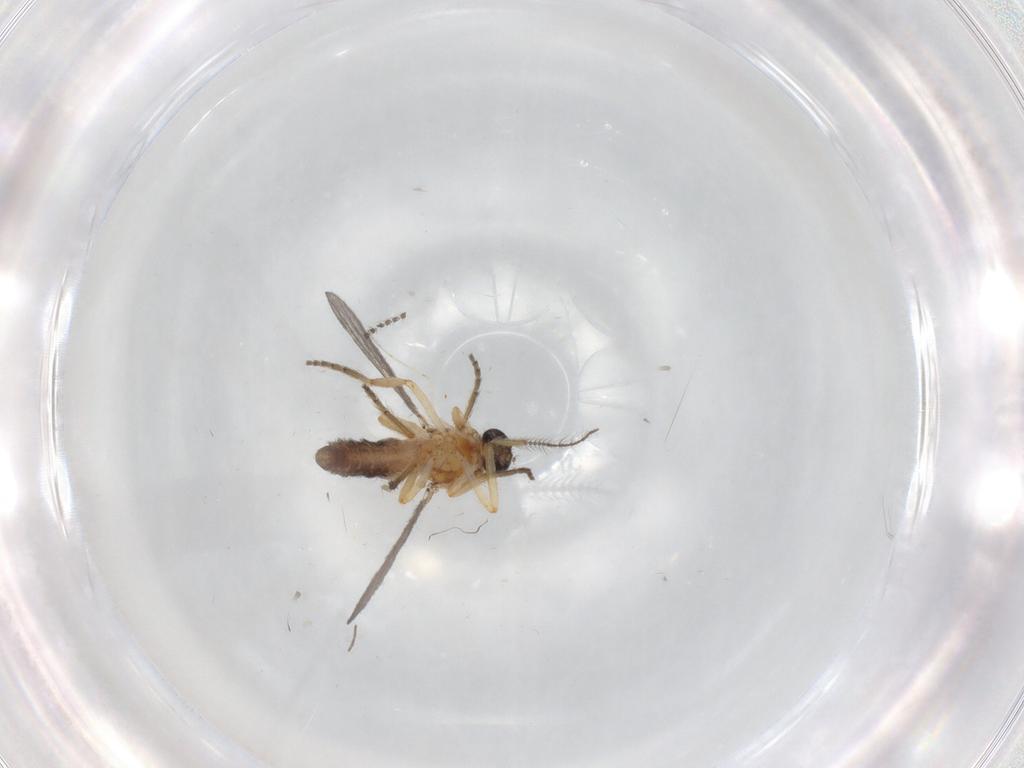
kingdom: Animalia
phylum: Arthropoda
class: Insecta
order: Diptera
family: Ceratopogonidae
